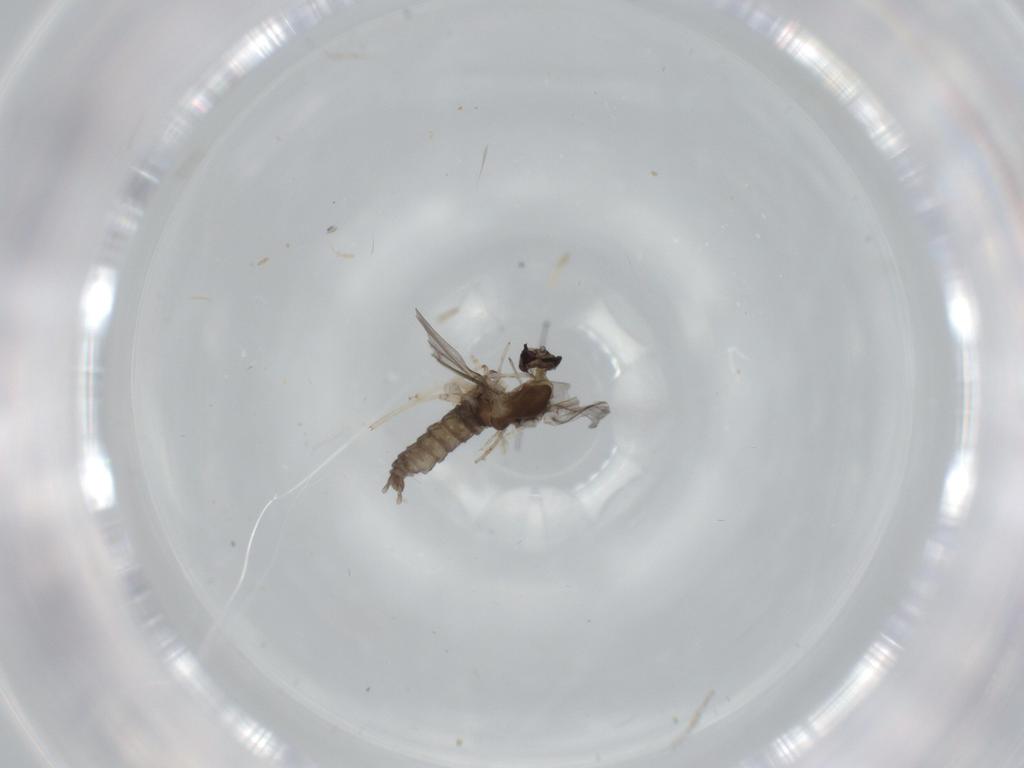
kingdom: Animalia
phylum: Arthropoda
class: Insecta
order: Diptera
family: Cecidomyiidae
